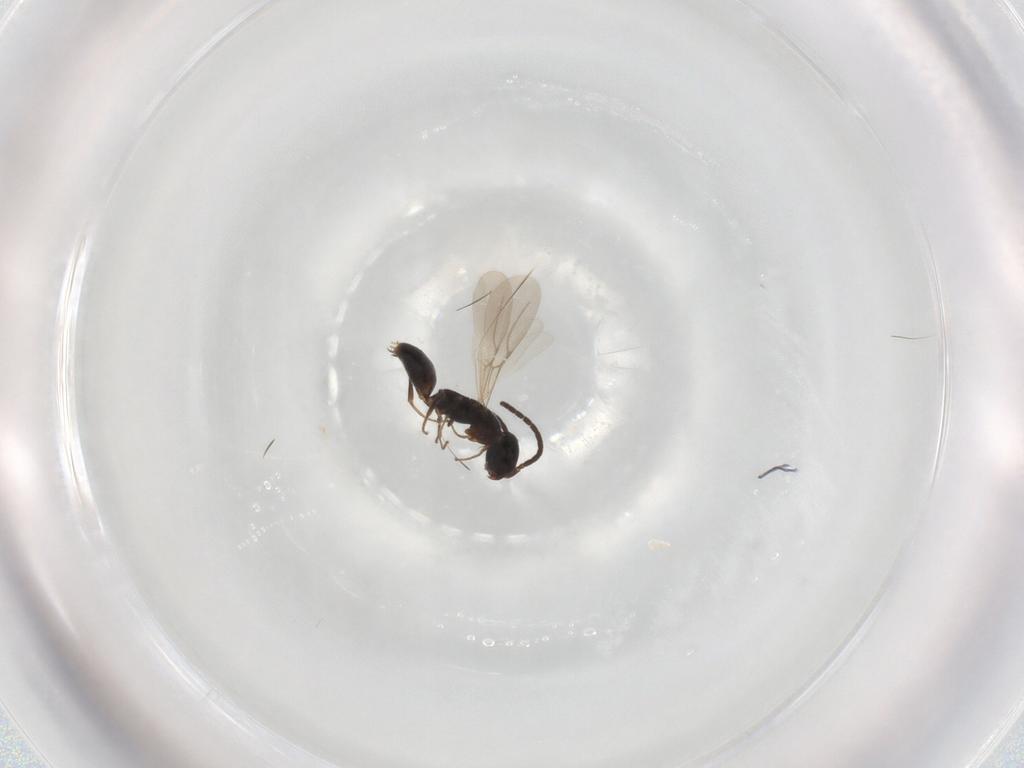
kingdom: Animalia
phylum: Arthropoda
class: Insecta
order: Hymenoptera
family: Bethylidae
